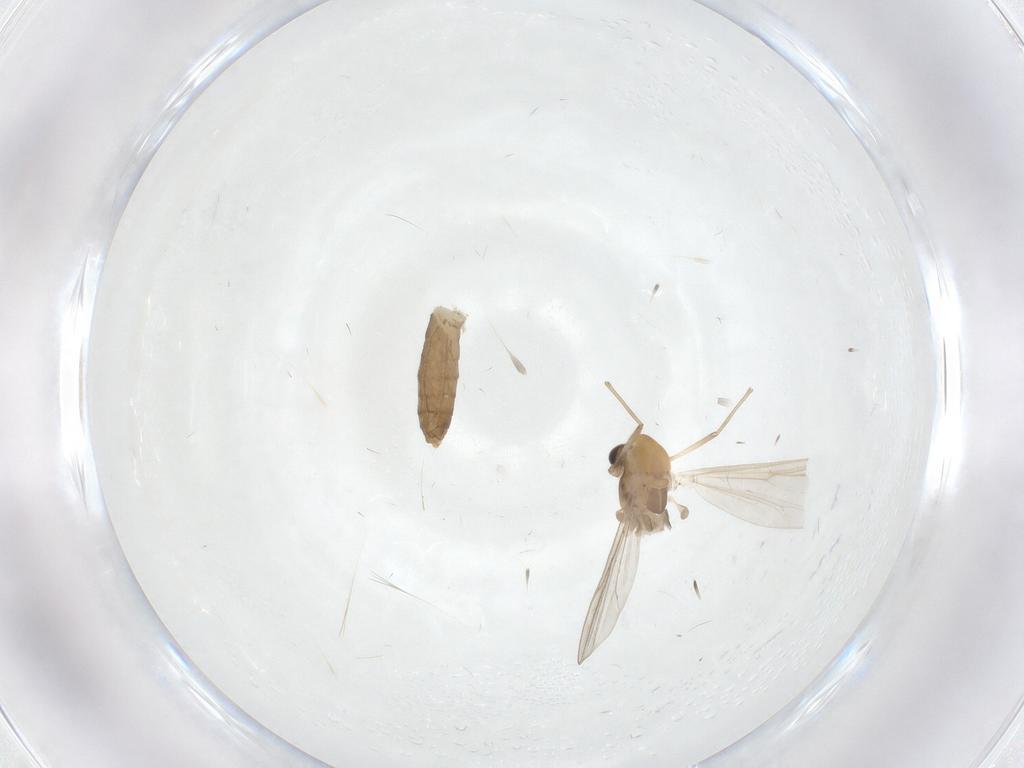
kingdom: Animalia
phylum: Arthropoda
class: Insecta
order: Diptera
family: Chironomidae
